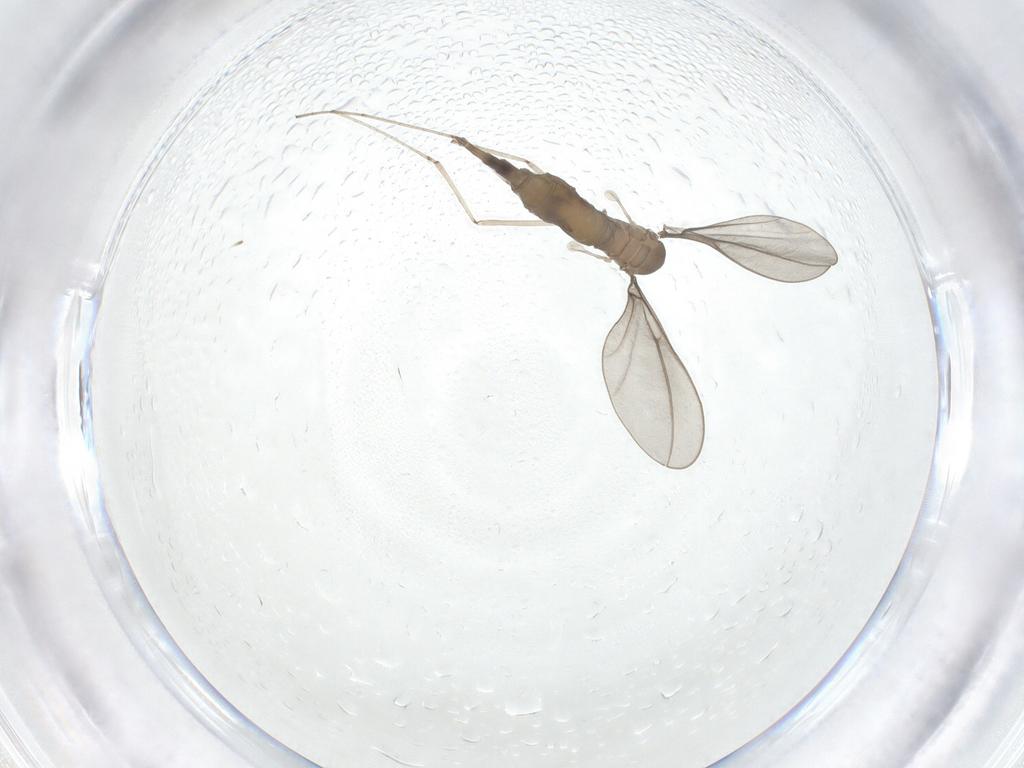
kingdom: Animalia
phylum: Arthropoda
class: Insecta
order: Diptera
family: Cecidomyiidae
